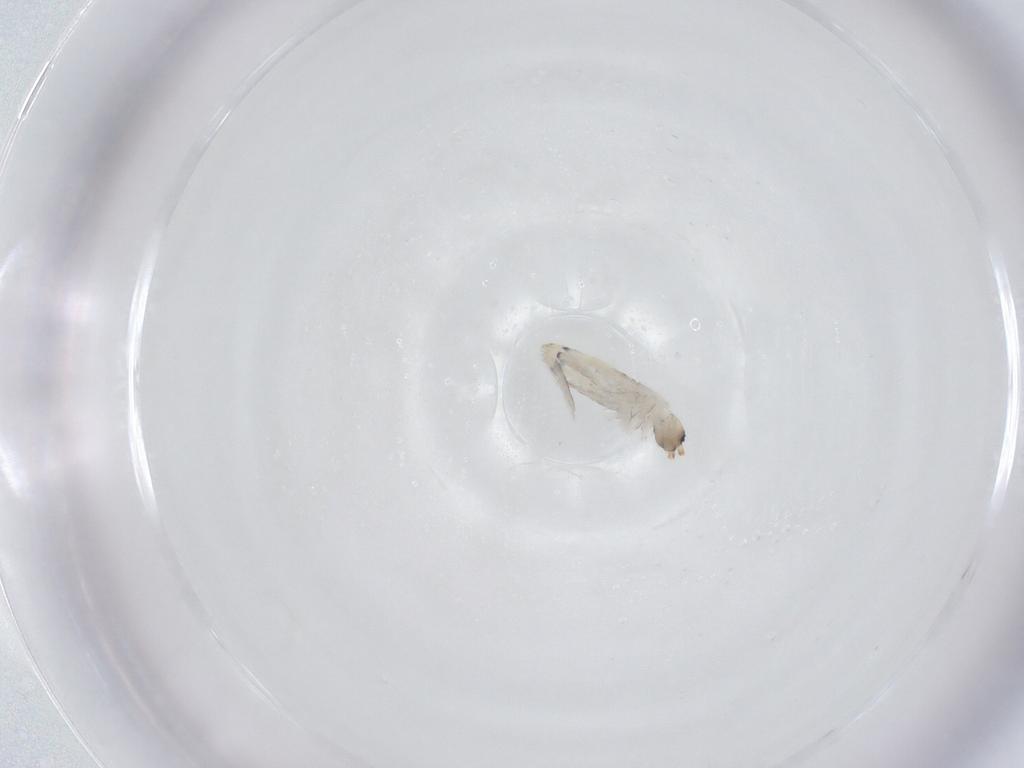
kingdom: Animalia
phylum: Arthropoda
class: Collembola
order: Entomobryomorpha
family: Entomobryidae
